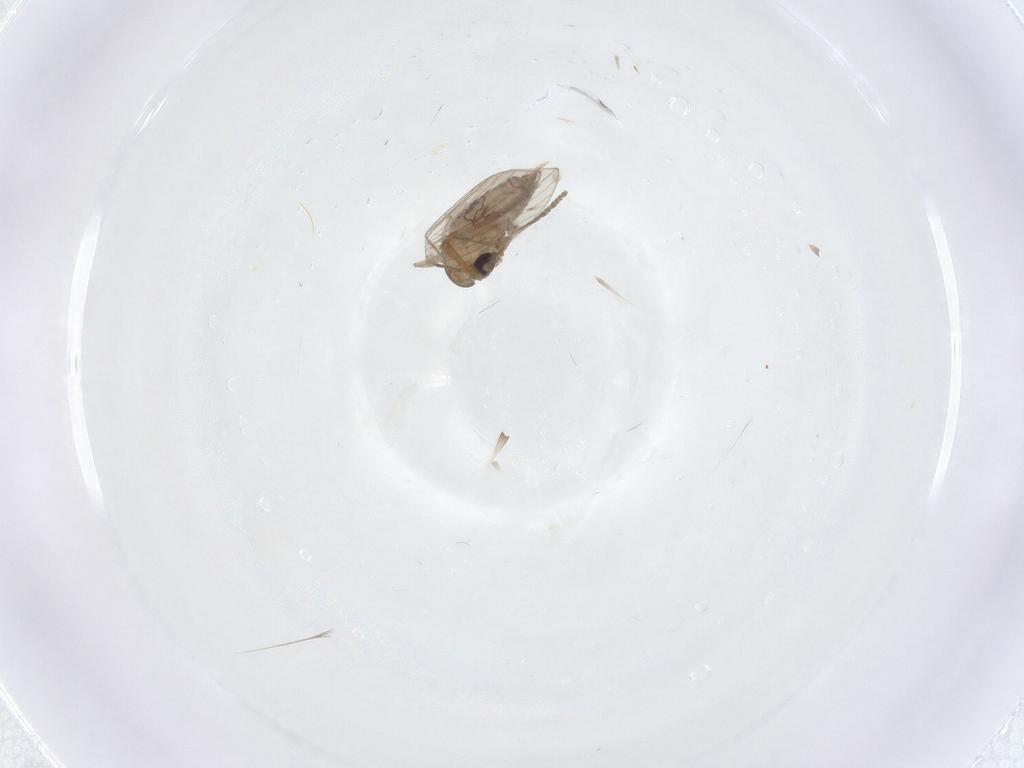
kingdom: Animalia
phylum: Arthropoda
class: Insecta
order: Diptera
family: Psychodidae
